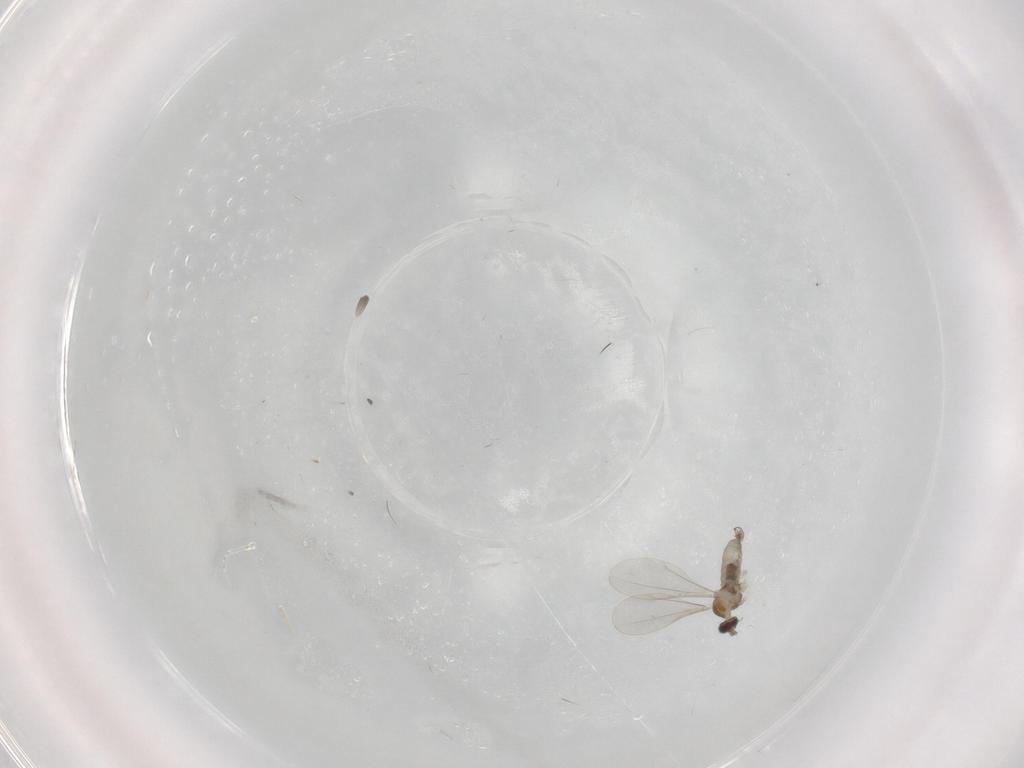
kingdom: Animalia
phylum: Arthropoda
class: Insecta
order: Diptera
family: Cecidomyiidae
